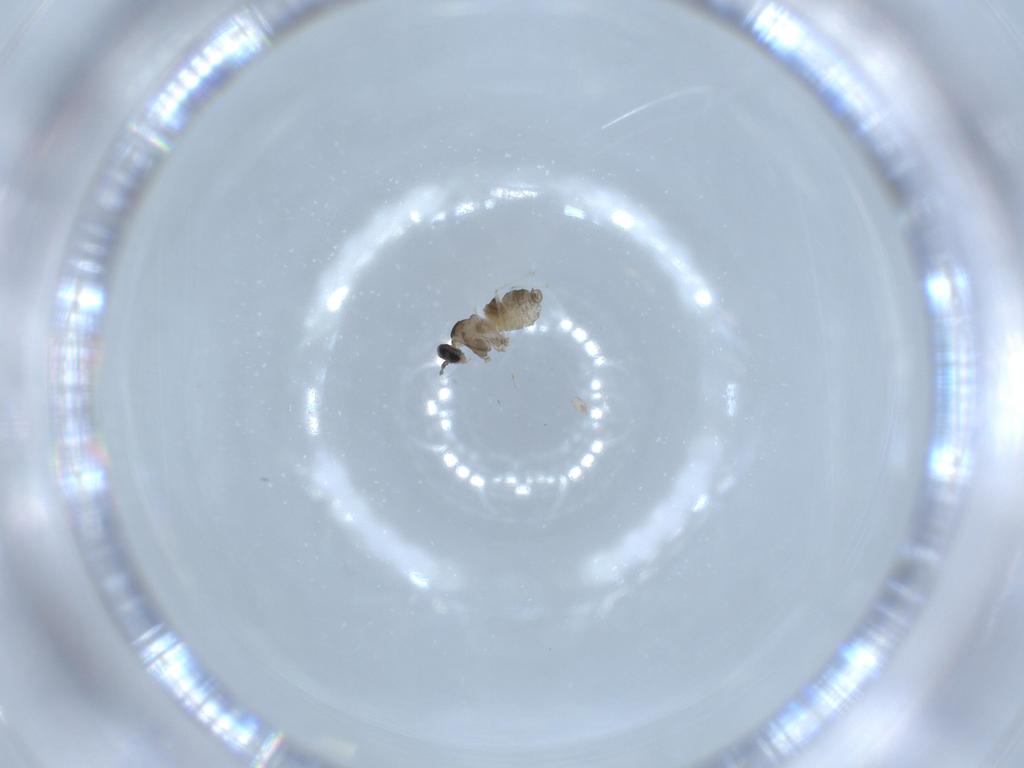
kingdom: Animalia
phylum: Arthropoda
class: Insecta
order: Diptera
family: Cecidomyiidae
